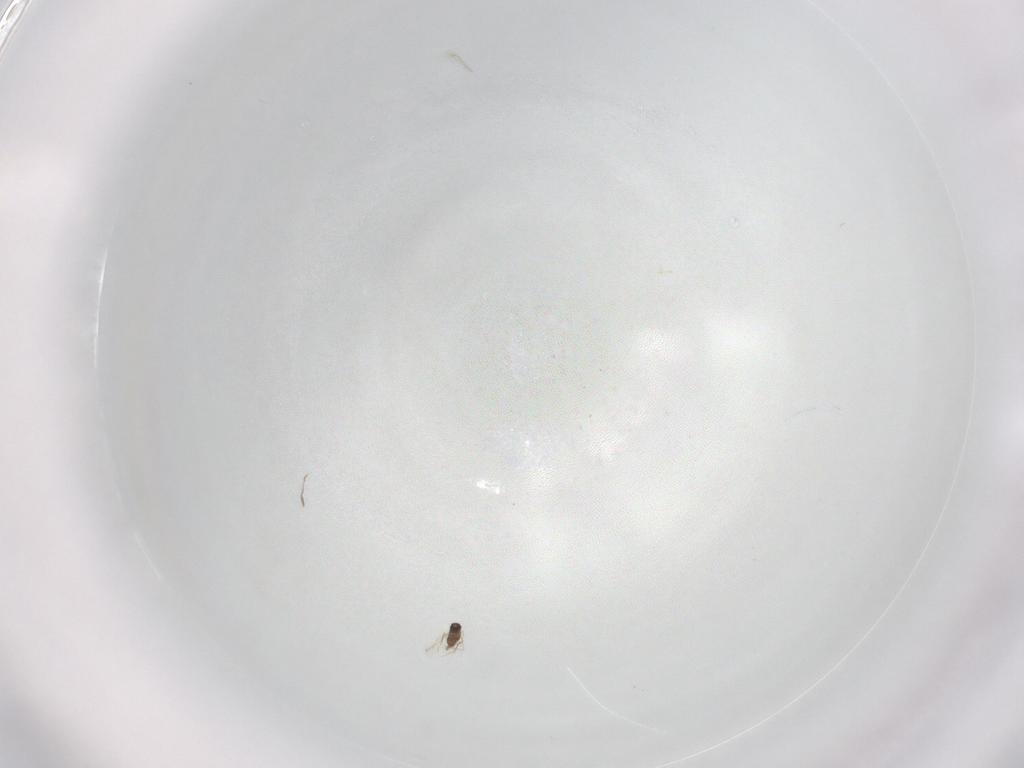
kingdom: Animalia
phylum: Arthropoda
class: Insecta
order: Hymenoptera
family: Mymaridae
